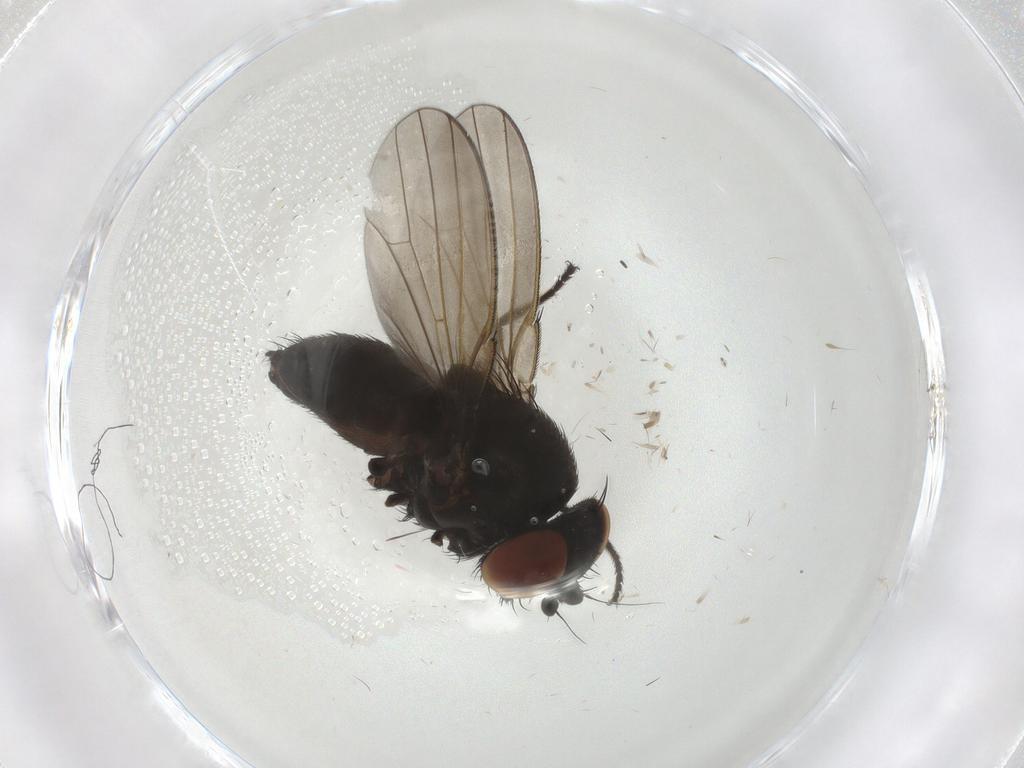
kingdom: Animalia
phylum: Arthropoda
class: Insecta
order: Diptera
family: Milichiidae
